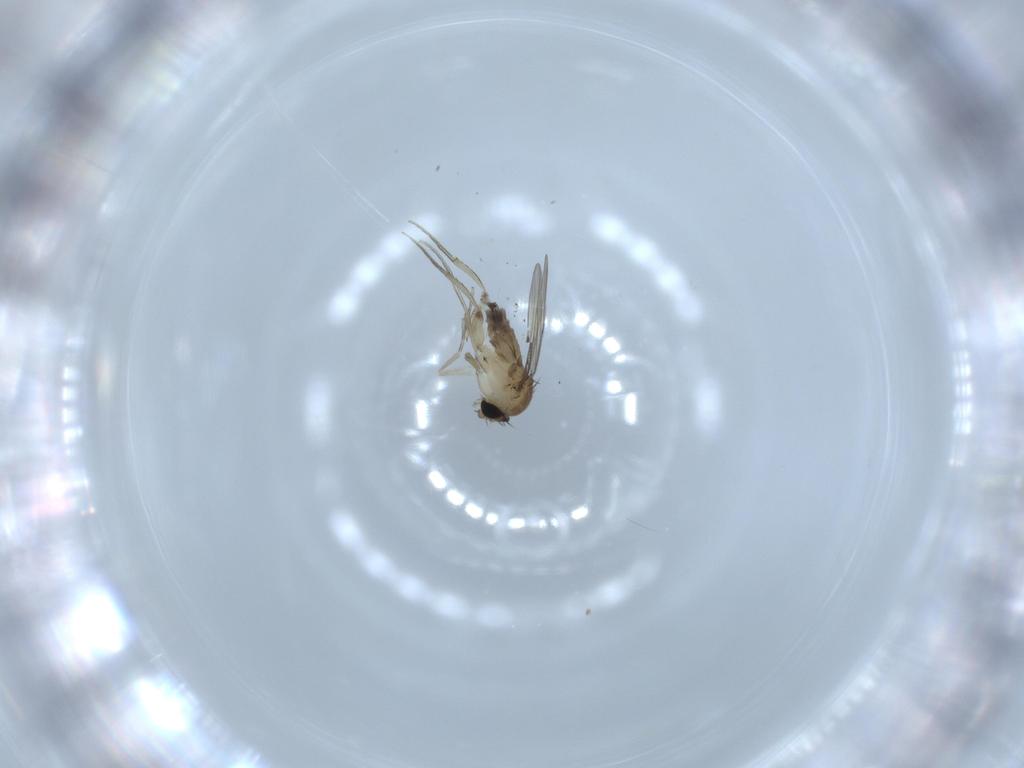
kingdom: Animalia
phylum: Arthropoda
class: Insecta
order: Diptera
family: Phoridae
